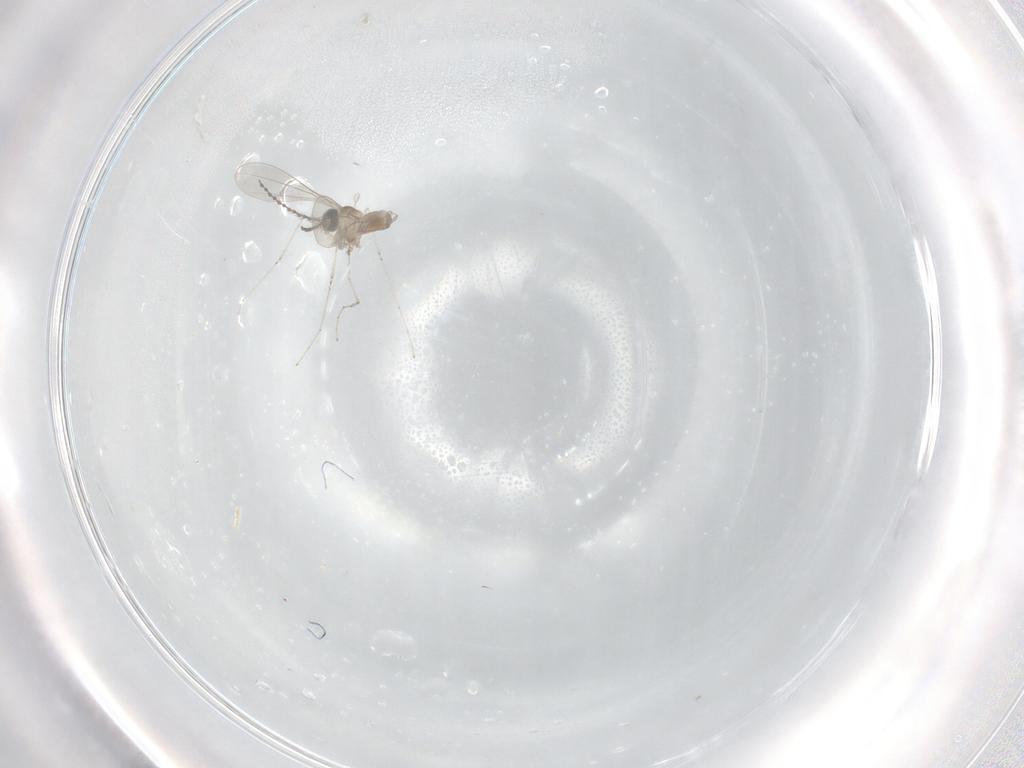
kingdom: Animalia
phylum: Arthropoda
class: Insecta
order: Diptera
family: Cecidomyiidae
